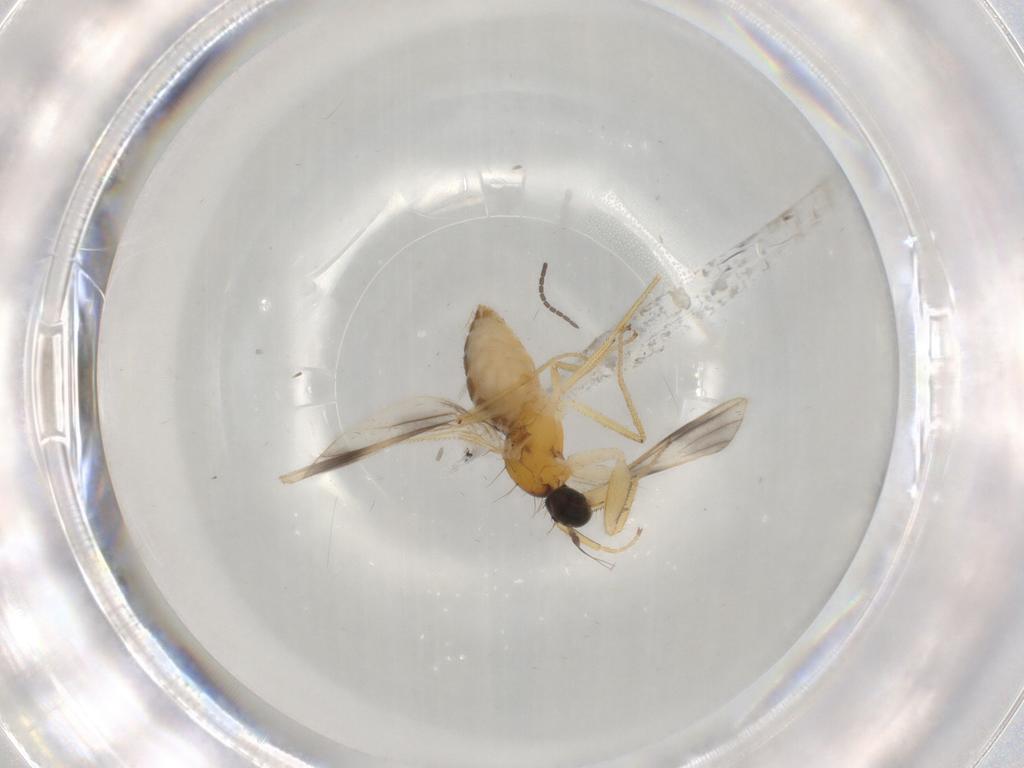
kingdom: Animalia
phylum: Arthropoda
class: Insecta
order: Diptera
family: Empididae
